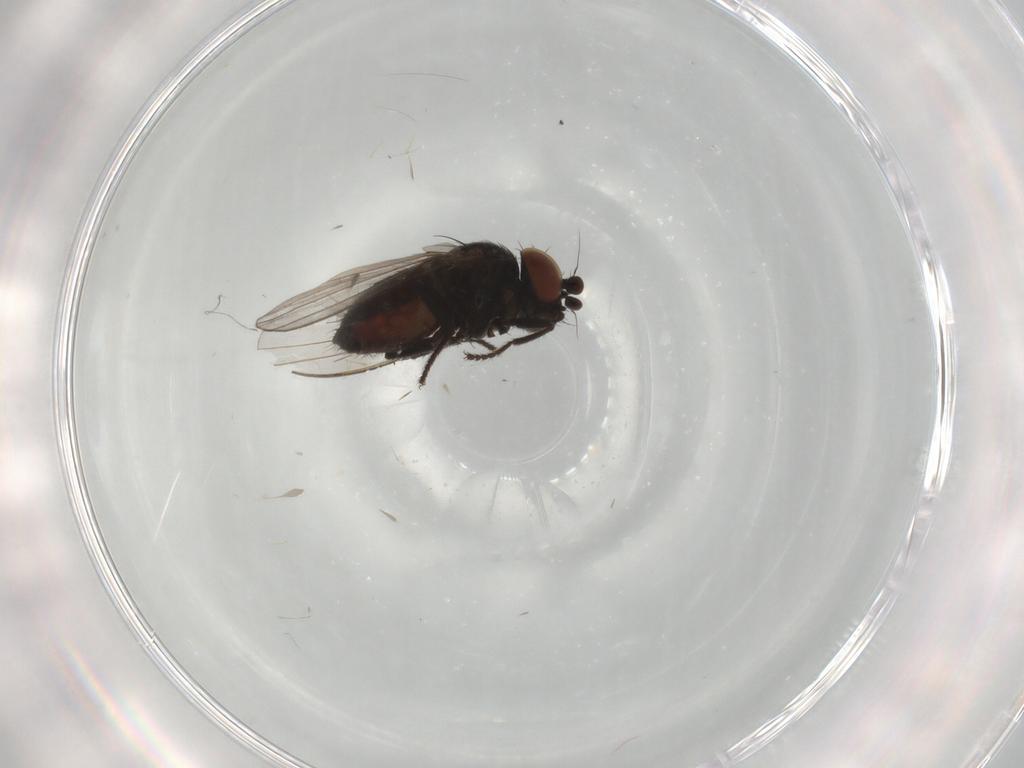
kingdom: Animalia
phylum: Arthropoda
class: Insecta
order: Diptera
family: Milichiidae
